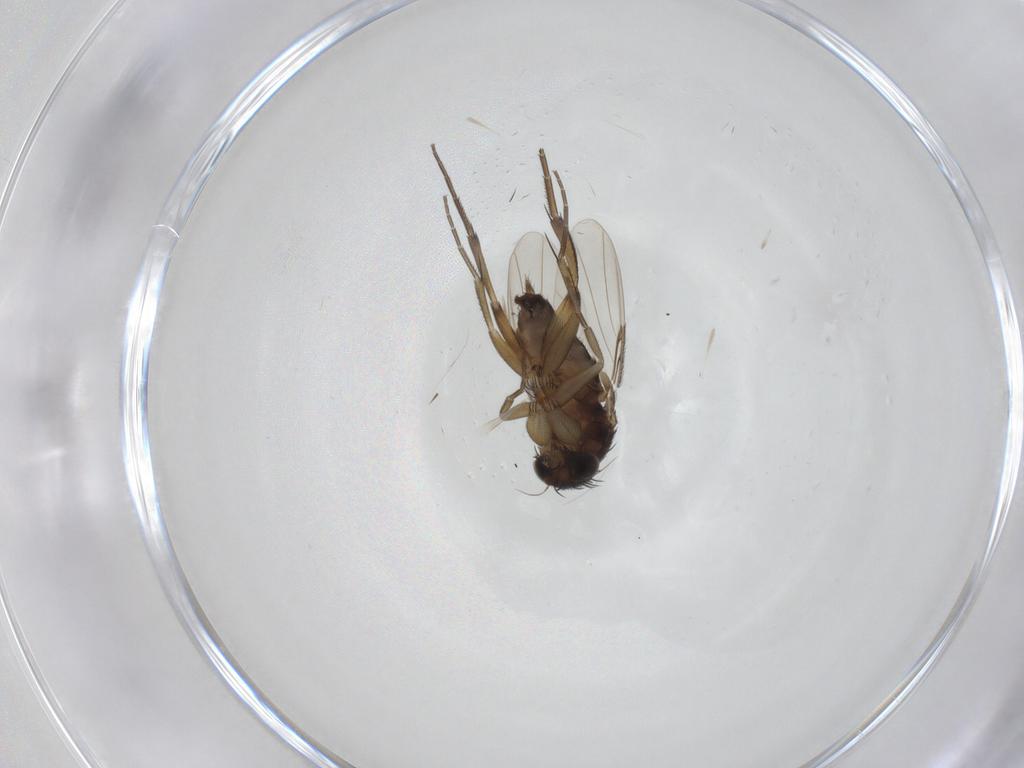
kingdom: Animalia
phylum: Arthropoda
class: Insecta
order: Diptera
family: Phoridae
